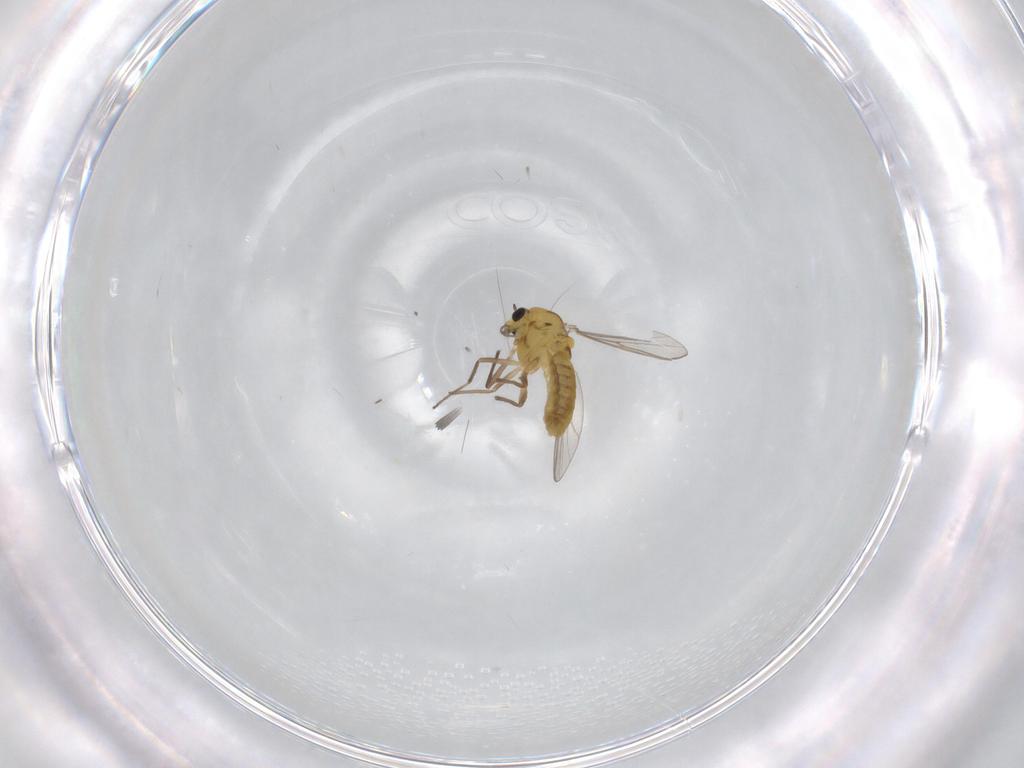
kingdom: Animalia
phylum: Arthropoda
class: Insecta
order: Diptera
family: Chironomidae
